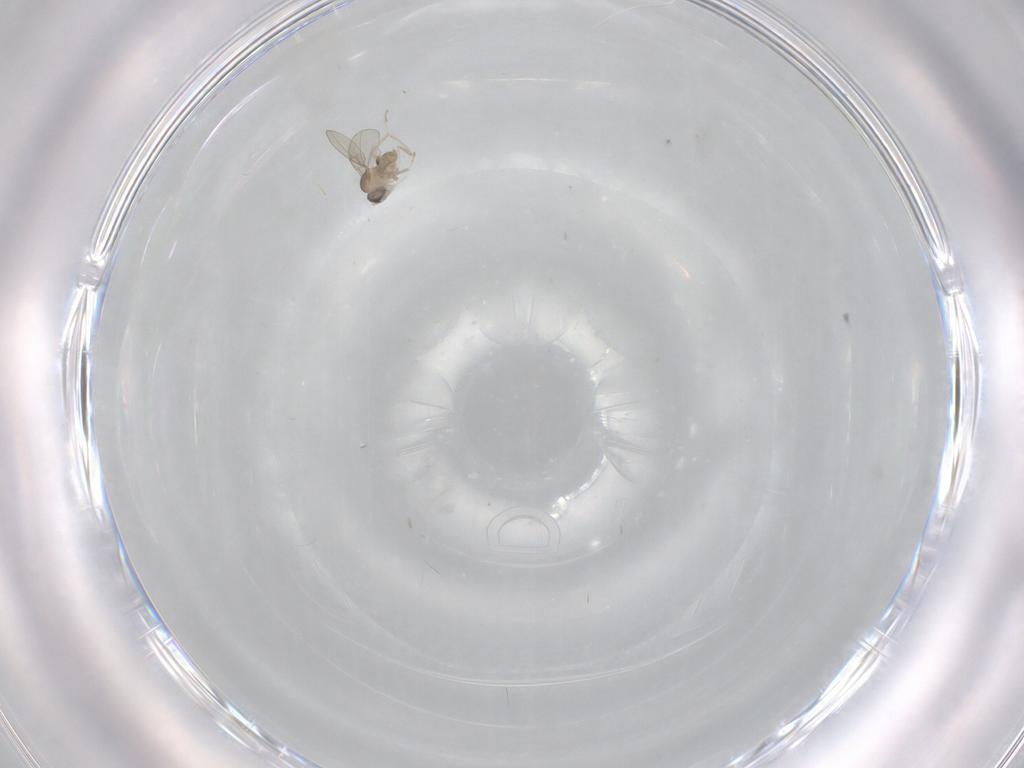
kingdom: Animalia
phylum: Arthropoda
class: Insecta
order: Diptera
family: Cecidomyiidae
